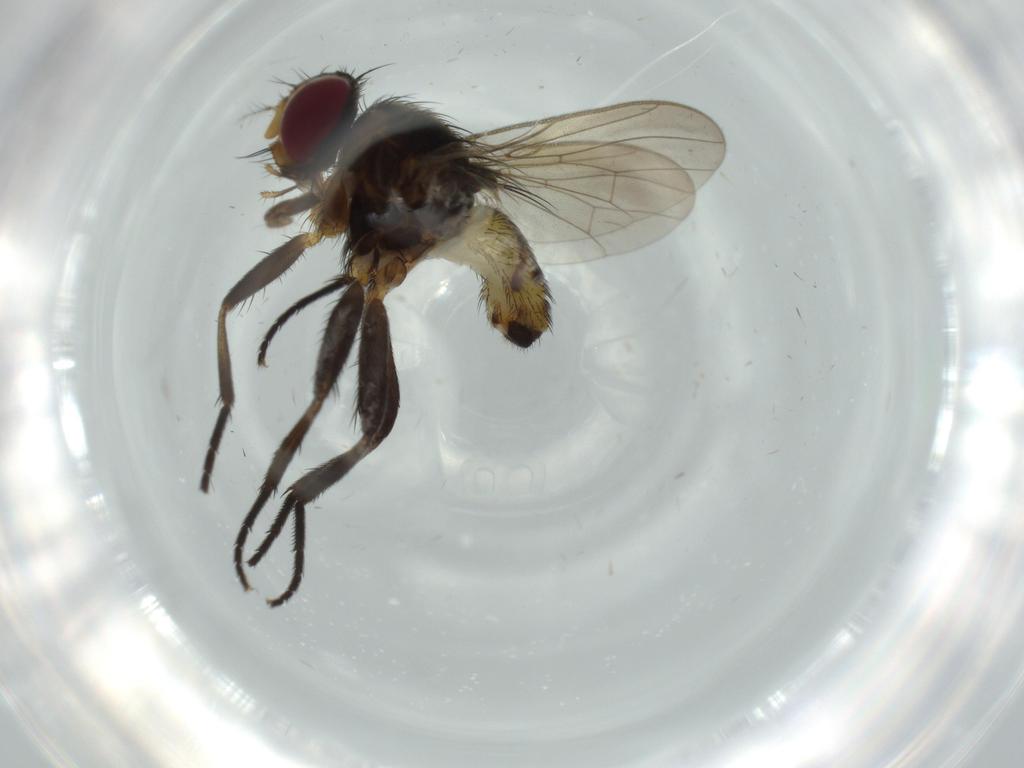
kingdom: Animalia
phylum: Arthropoda
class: Insecta
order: Diptera
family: Anthomyiidae
